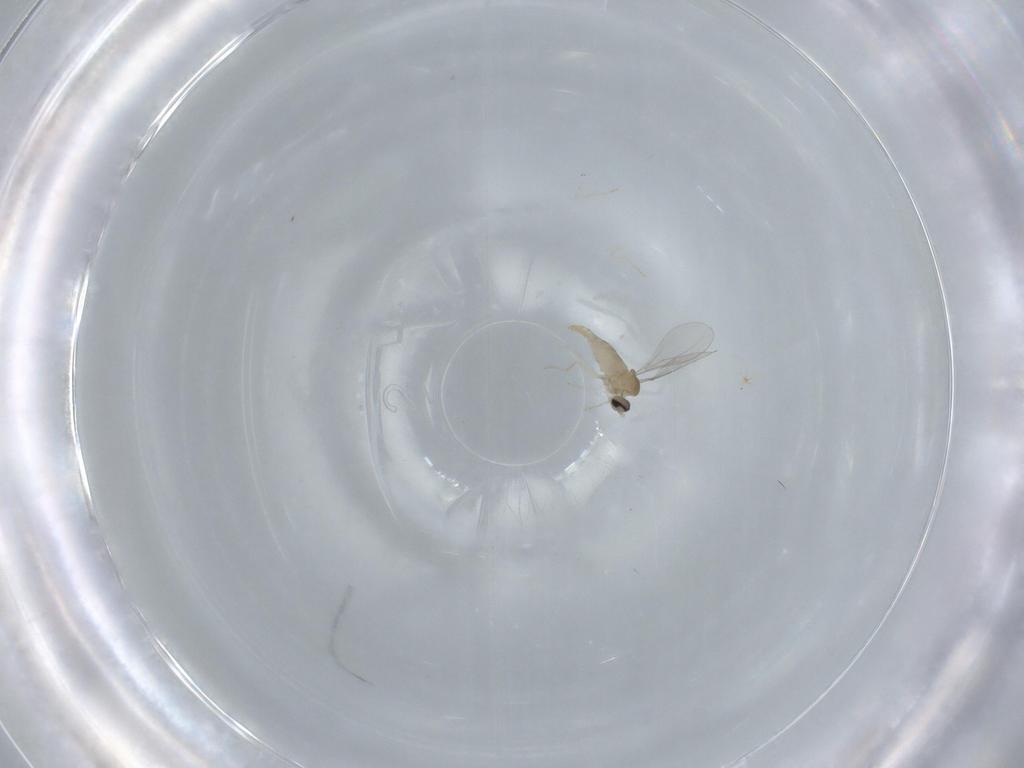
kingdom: Animalia
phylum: Arthropoda
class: Insecta
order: Diptera
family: Cecidomyiidae
